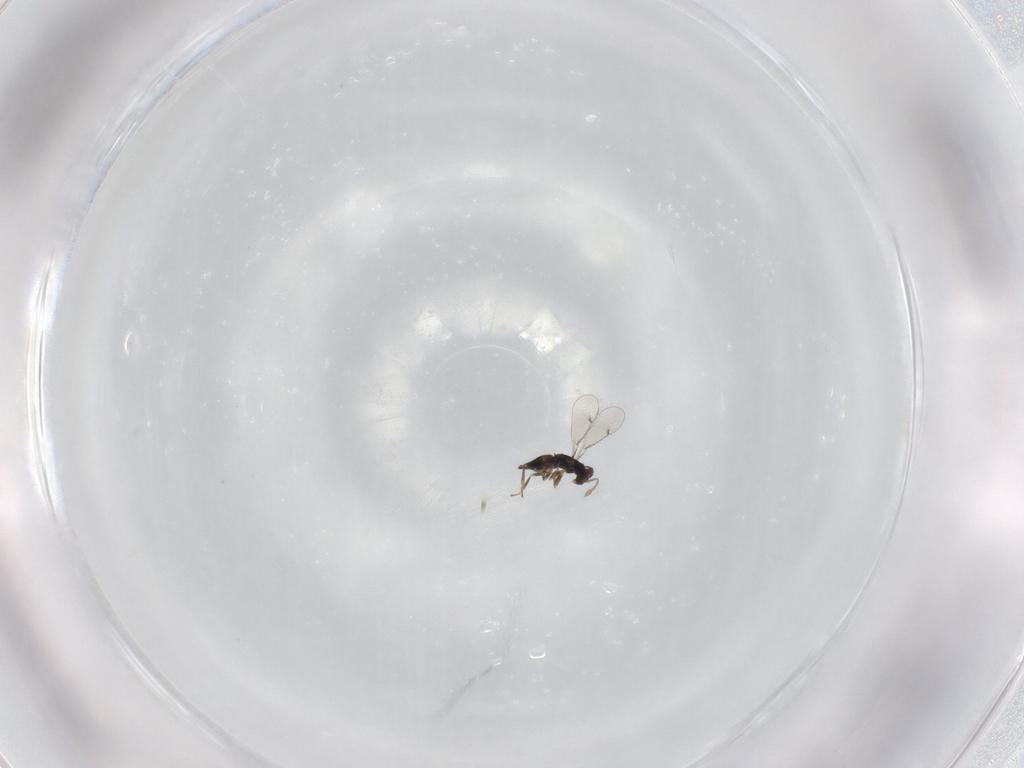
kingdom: Animalia
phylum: Arthropoda
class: Insecta
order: Hymenoptera
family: Eulophidae
